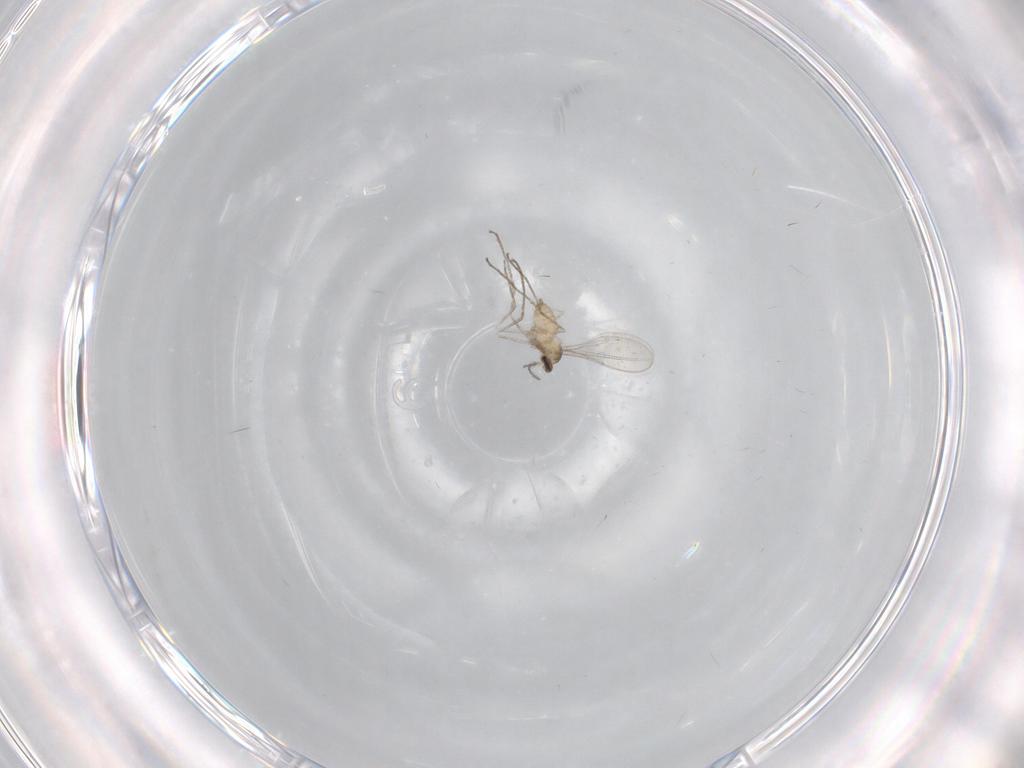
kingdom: Animalia
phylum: Arthropoda
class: Insecta
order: Diptera
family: Cecidomyiidae
